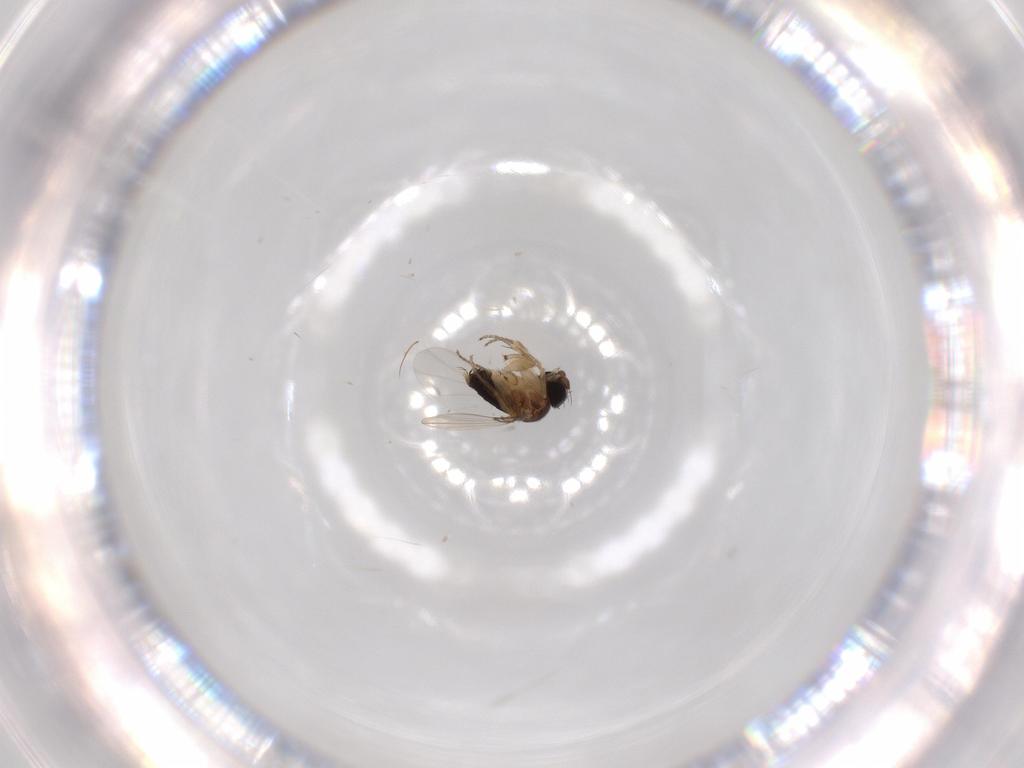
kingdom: Animalia
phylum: Arthropoda
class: Insecta
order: Diptera
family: Phoridae
